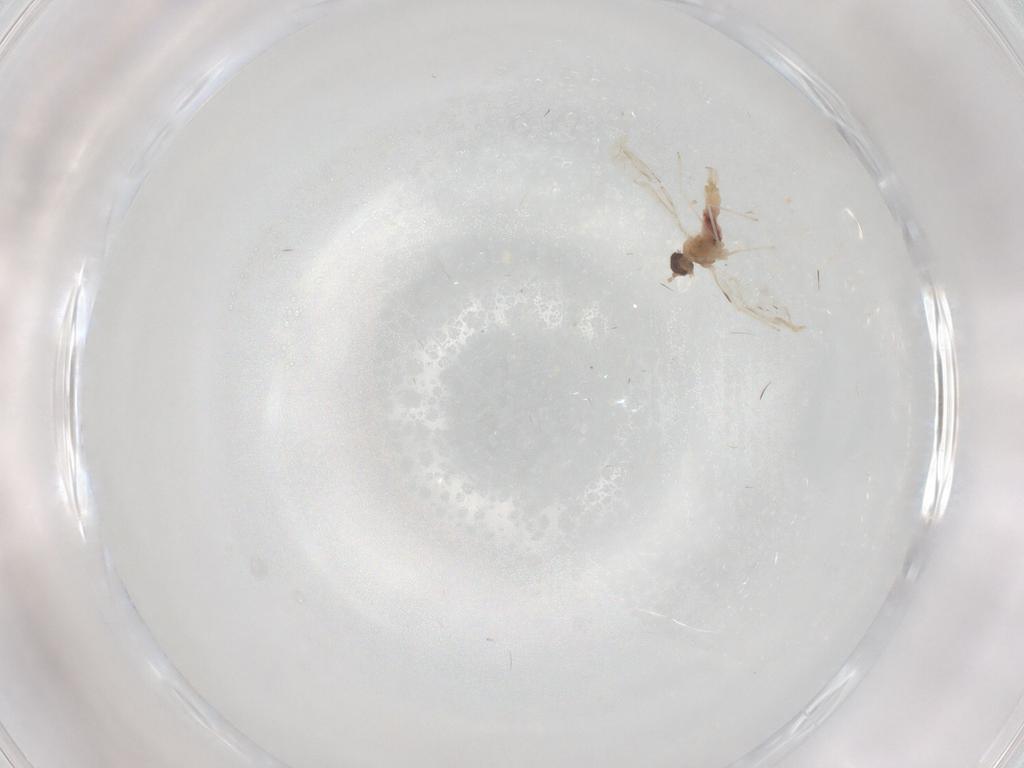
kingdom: Animalia
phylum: Arthropoda
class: Insecta
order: Diptera
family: Cecidomyiidae
